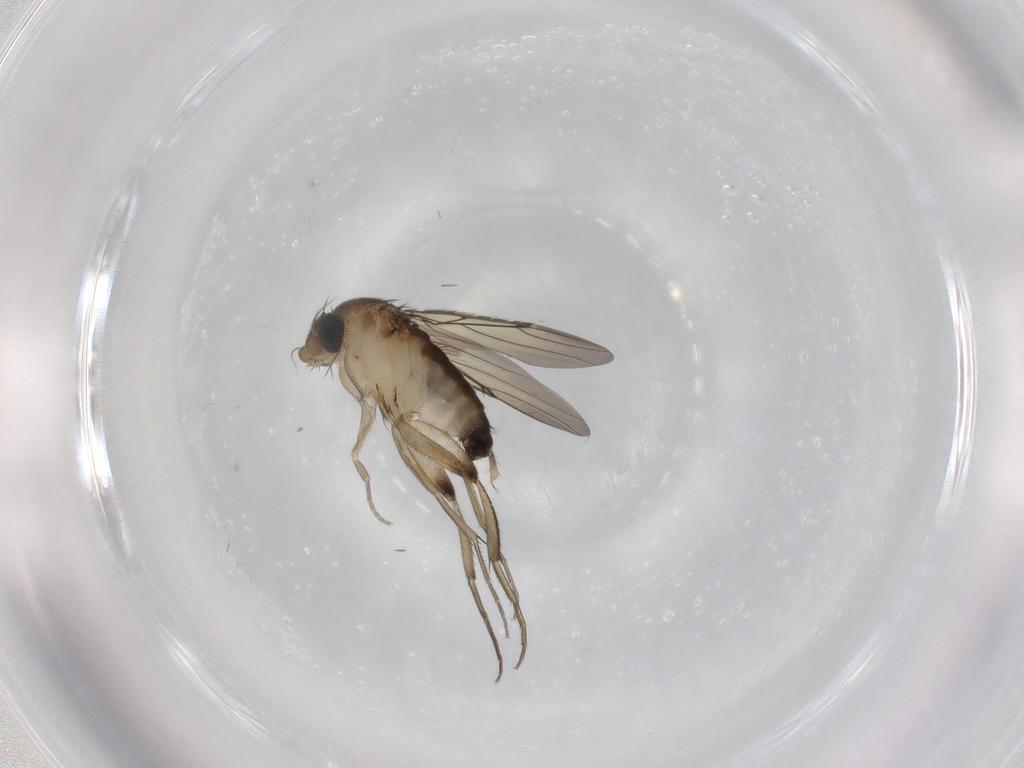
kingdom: Animalia
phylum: Arthropoda
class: Insecta
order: Diptera
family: Phoridae
